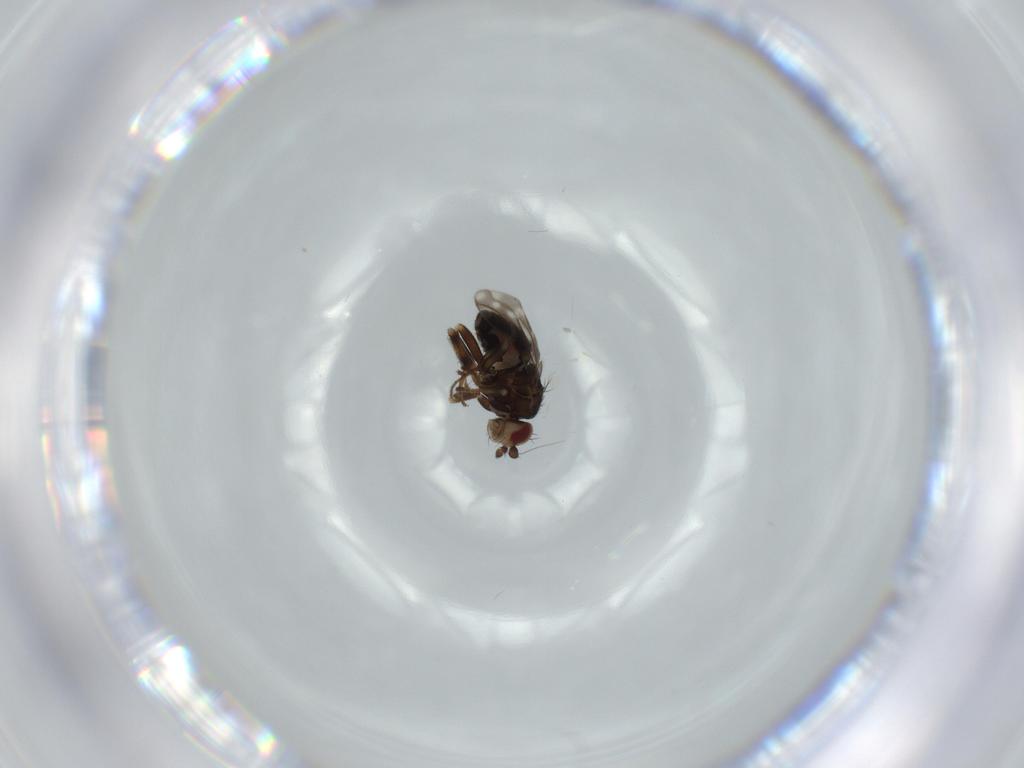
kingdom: Animalia
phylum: Arthropoda
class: Insecta
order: Diptera
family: Sphaeroceridae
